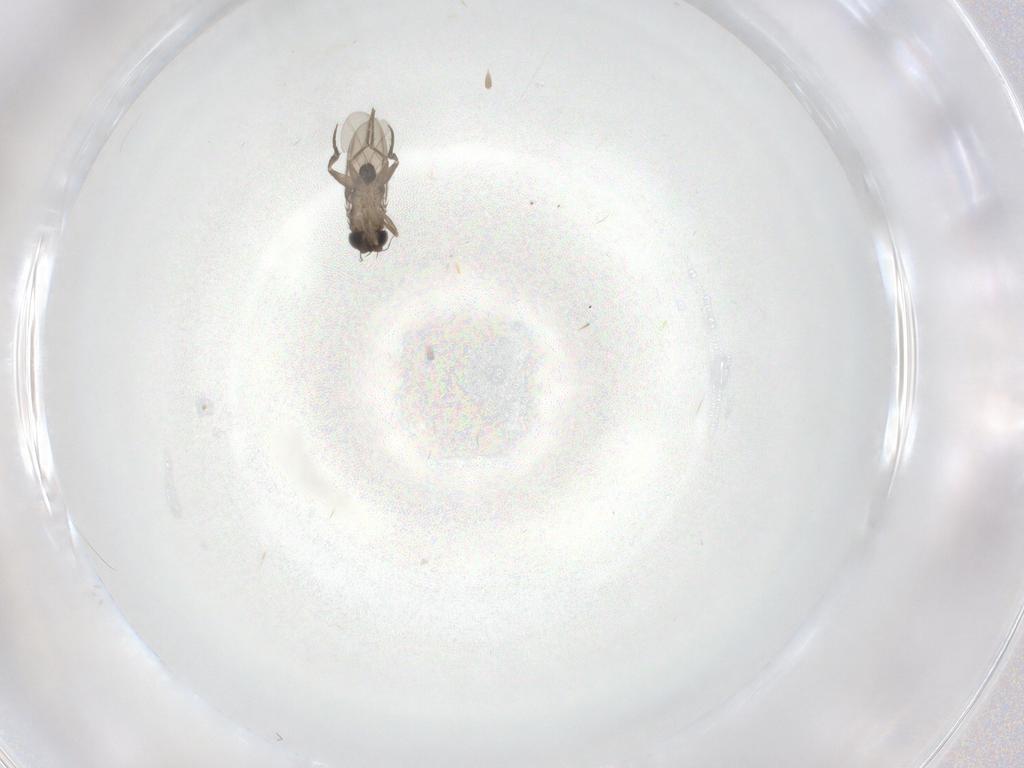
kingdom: Animalia
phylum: Arthropoda
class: Insecta
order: Diptera
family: Phoridae
